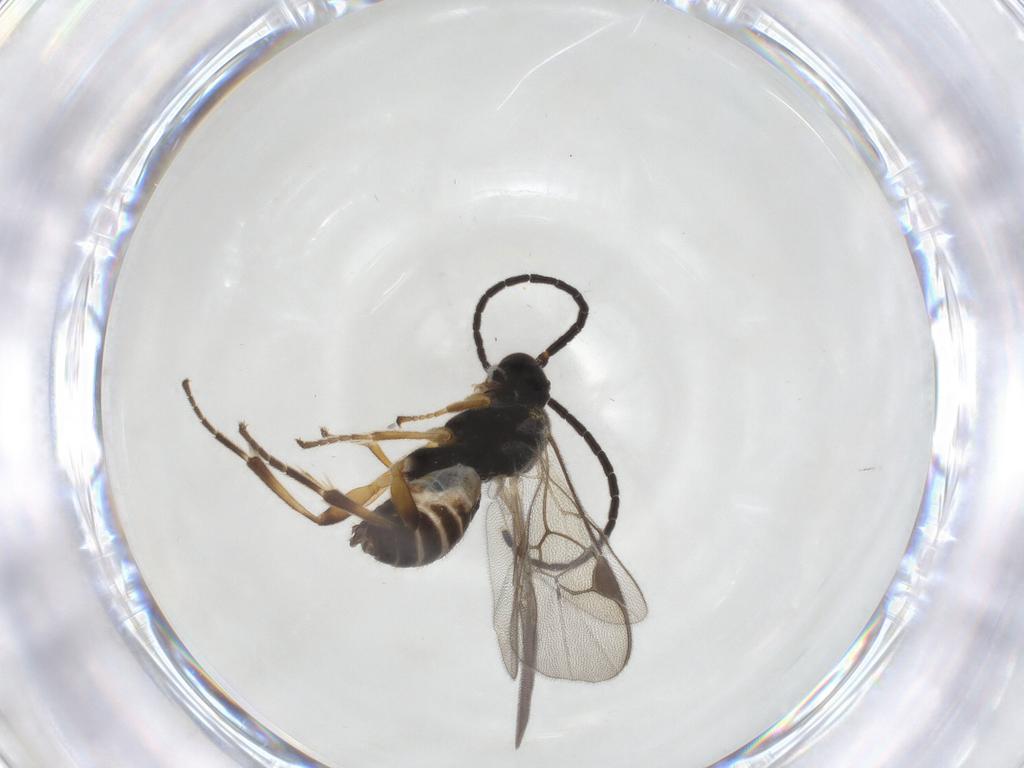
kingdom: Animalia
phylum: Arthropoda
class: Insecta
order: Hymenoptera
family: Braconidae
